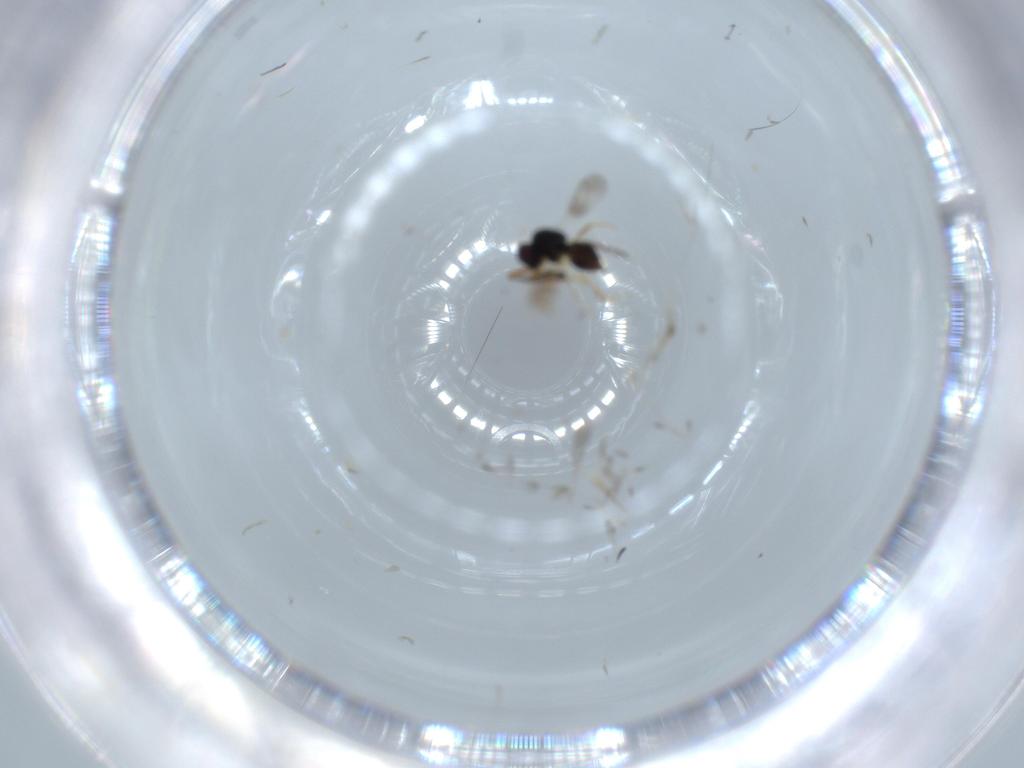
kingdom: Animalia
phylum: Arthropoda
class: Insecta
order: Hymenoptera
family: Ceraphronidae
